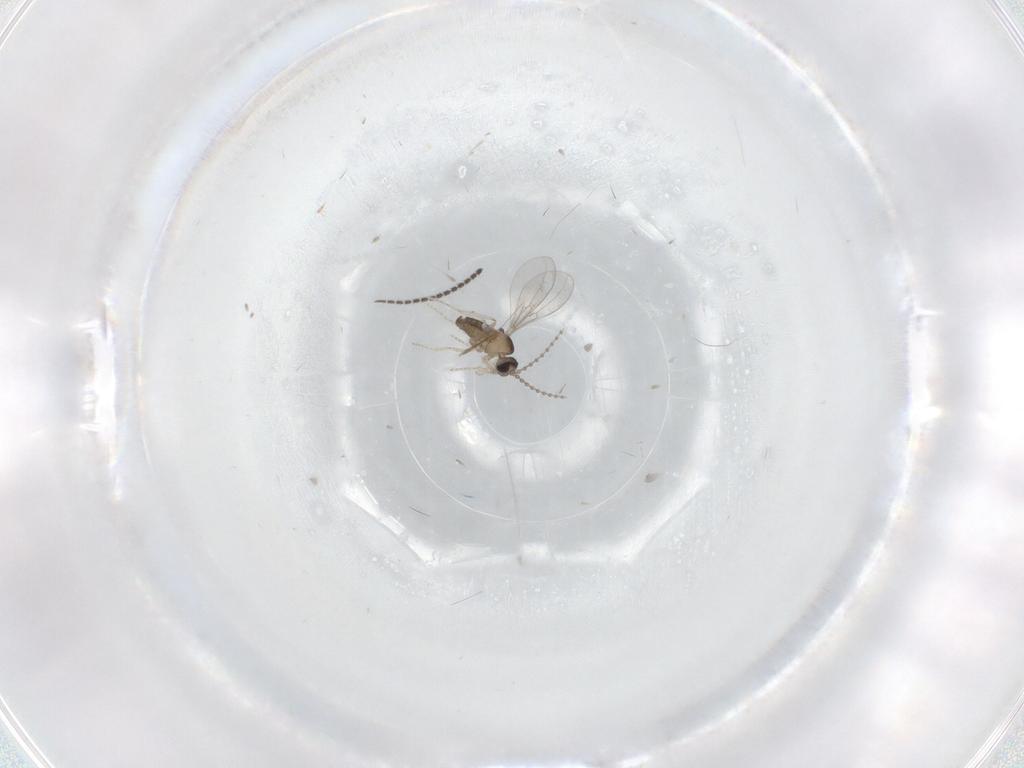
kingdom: Animalia
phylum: Arthropoda
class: Insecta
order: Diptera
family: Cecidomyiidae
